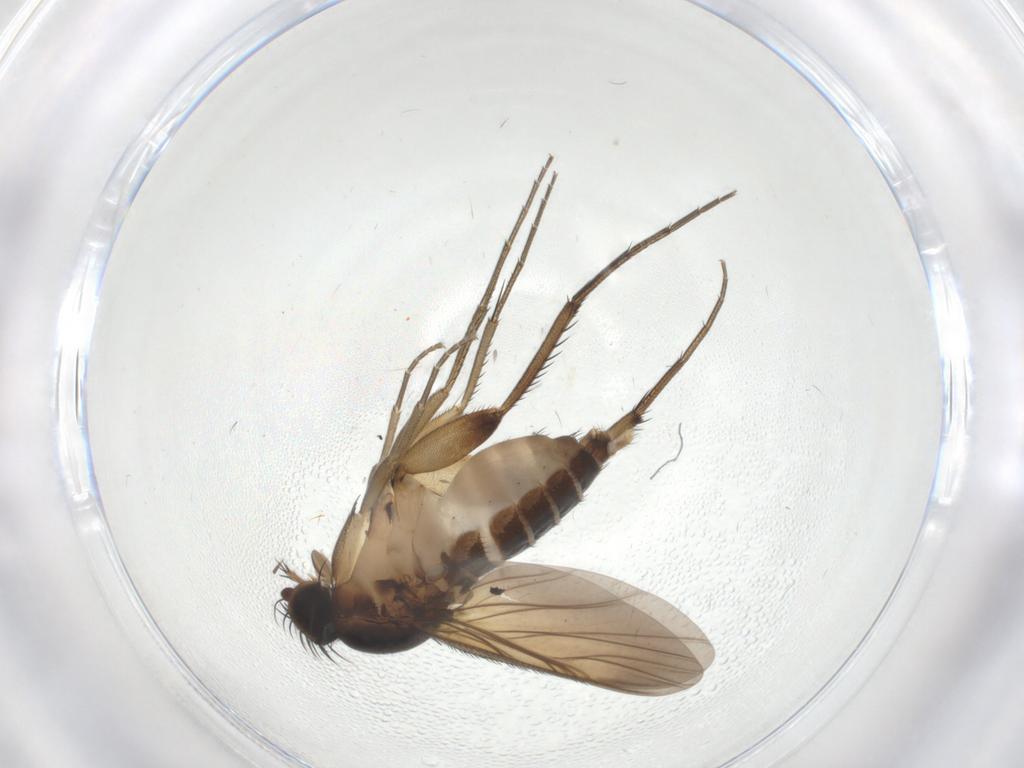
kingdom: Animalia
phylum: Arthropoda
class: Insecta
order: Diptera
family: Phoridae
